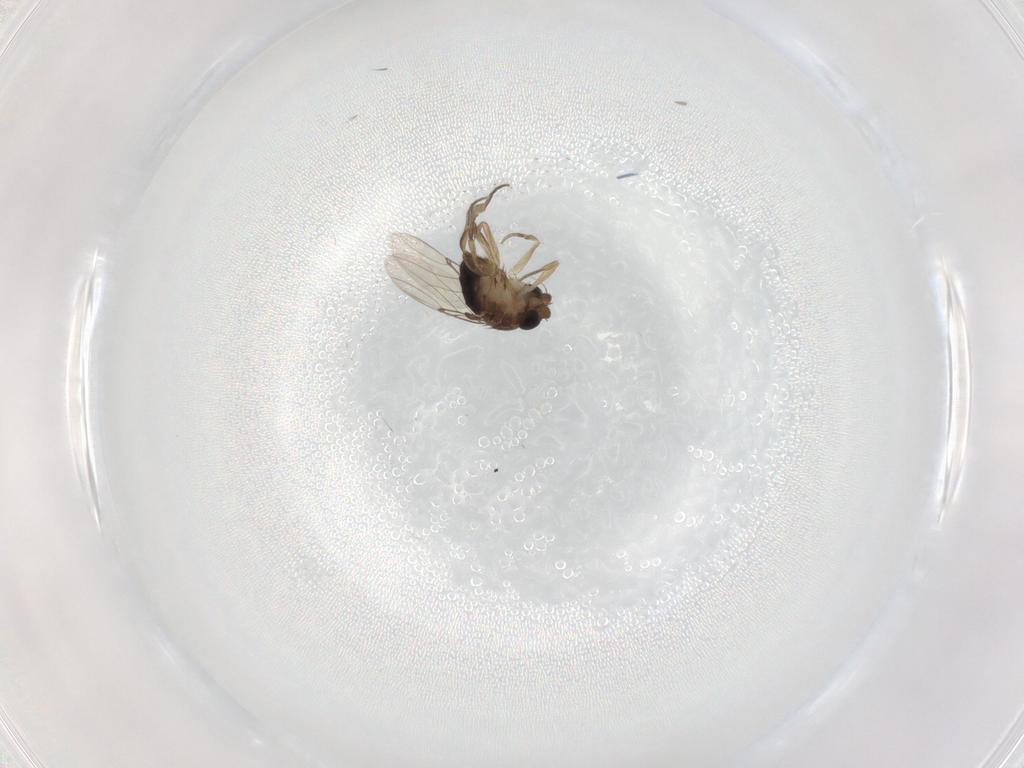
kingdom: Animalia
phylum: Arthropoda
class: Insecta
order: Diptera
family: Phoridae
